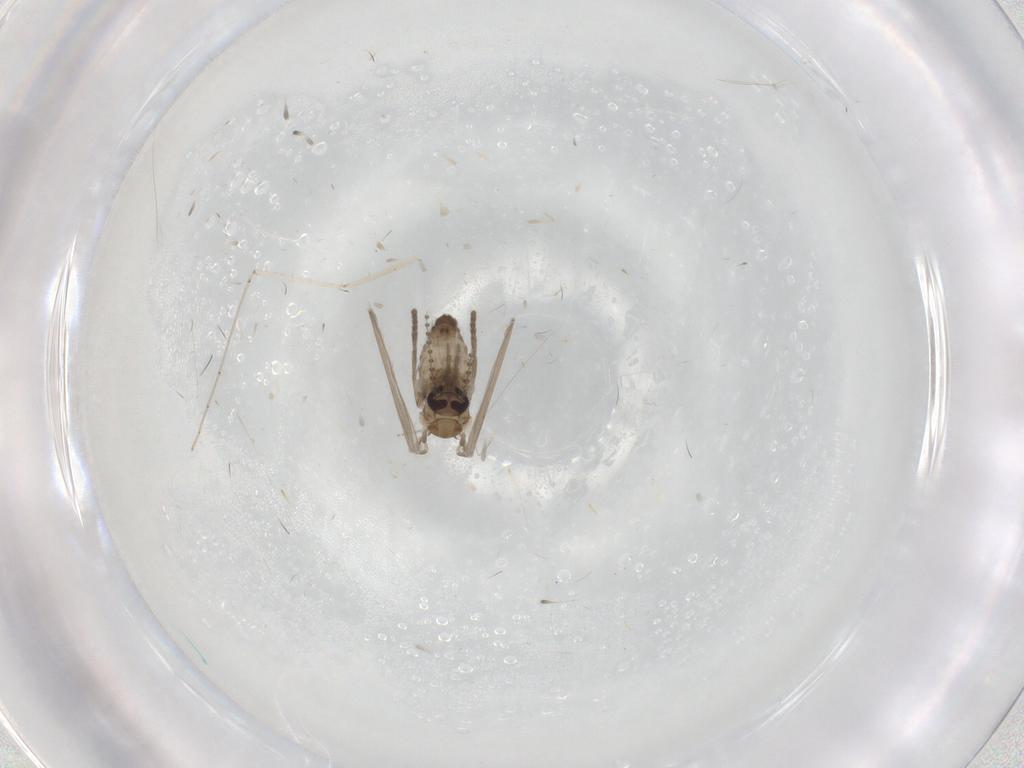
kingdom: Animalia
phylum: Arthropoda
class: Insecta
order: Diptera
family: Psychodidae
